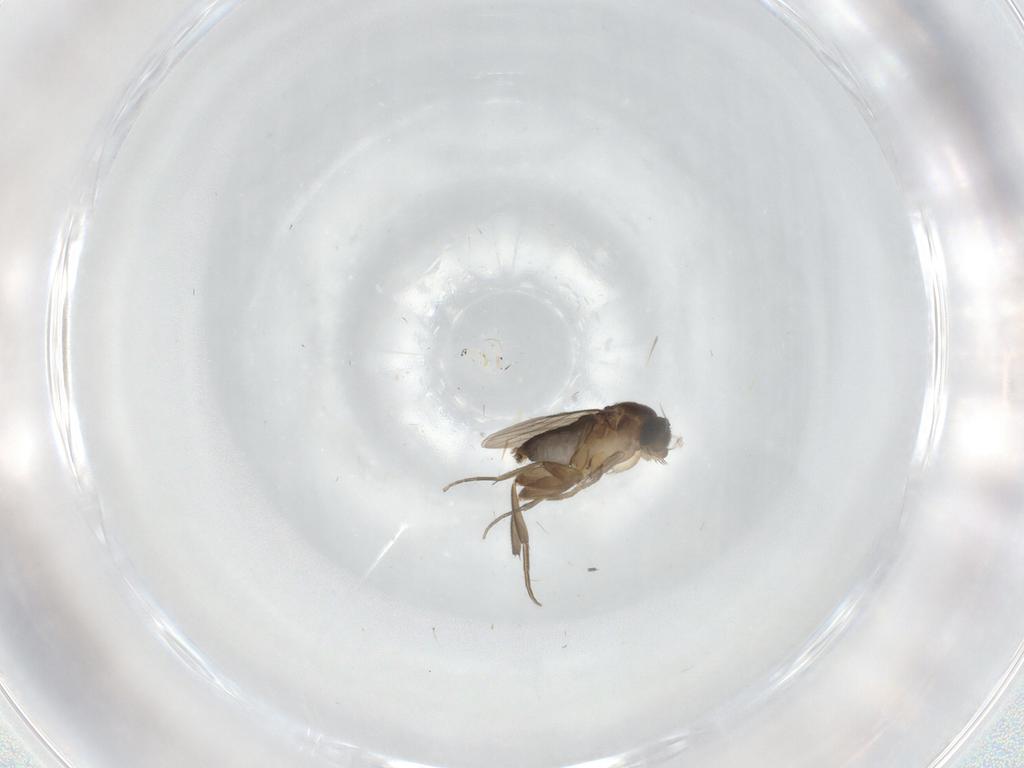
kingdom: Animalia
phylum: Arthropoda
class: Insecta
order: Diptera
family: Phoridae
